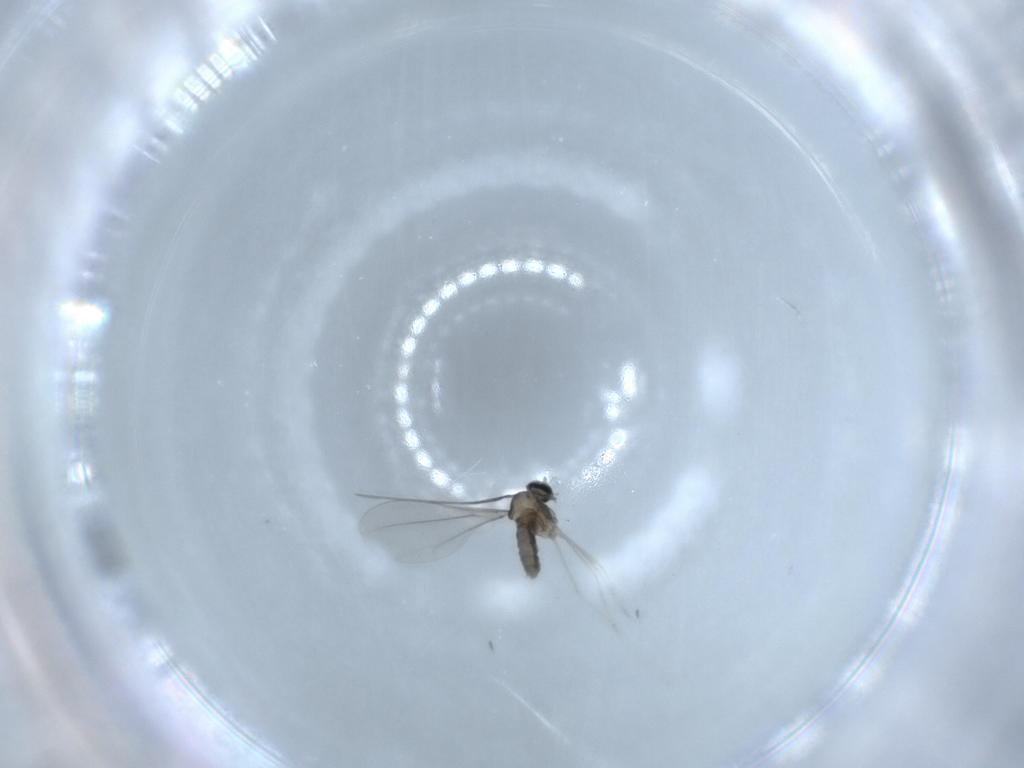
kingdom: Animalia
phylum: Arthropoda
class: Insecta
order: Diptera
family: Cecidomyiidae
